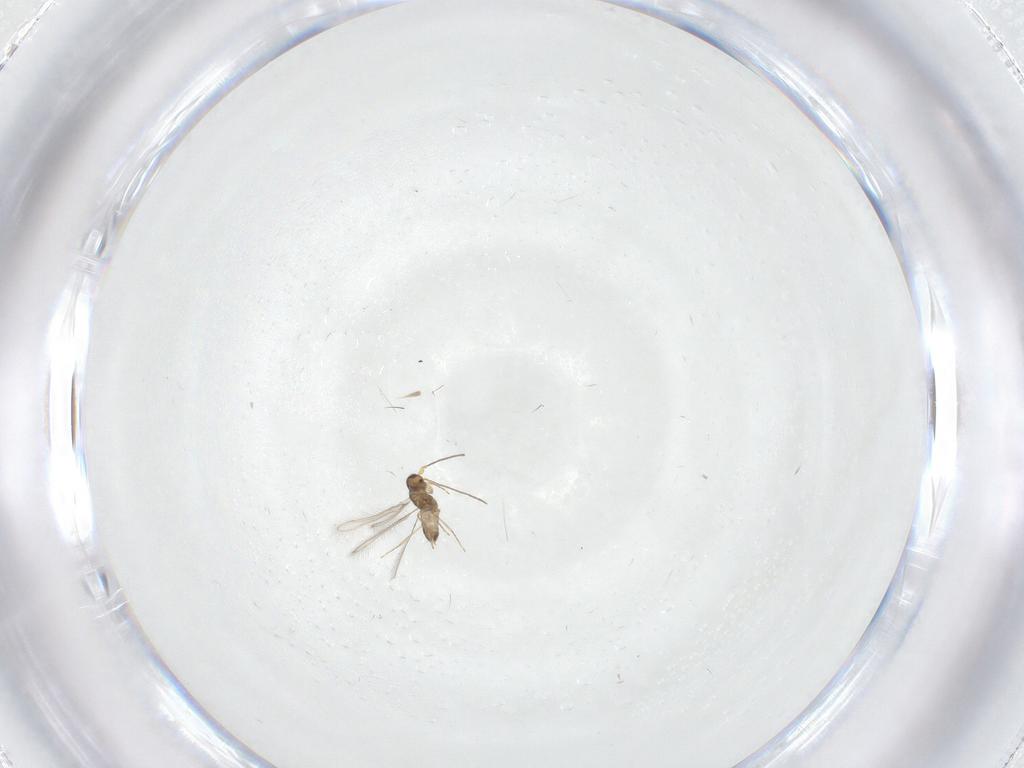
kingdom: Animalia
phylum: Arthropoda
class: Insecta
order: Hymenoptera
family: Mymaridae
